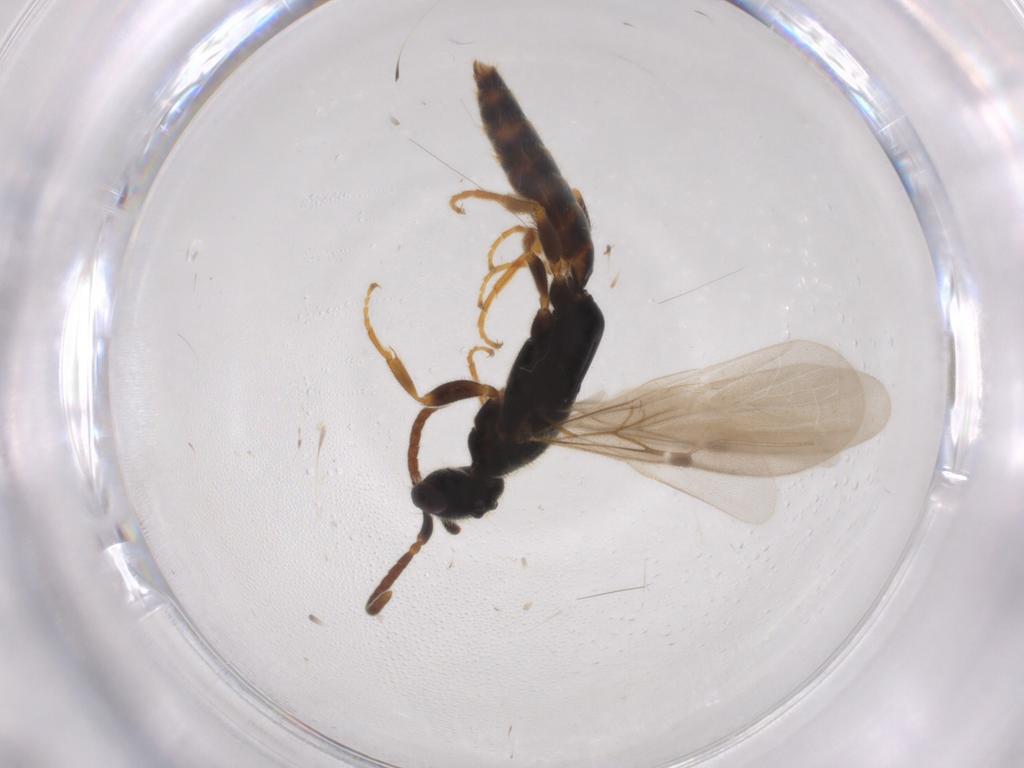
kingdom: Animalia
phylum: Arthropoda
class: Insecta
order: Hymenoptera
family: Bethylidae
